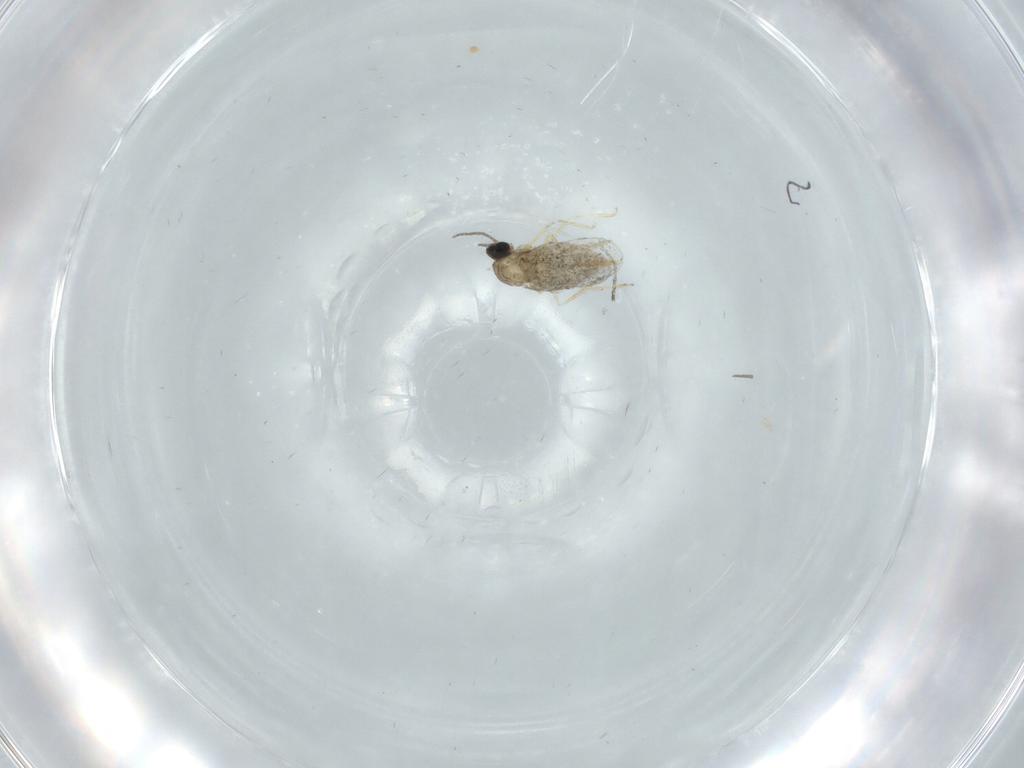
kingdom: Animalia
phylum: Arthropoda
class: Insecta
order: Diptera
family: Cecidomyiidae
